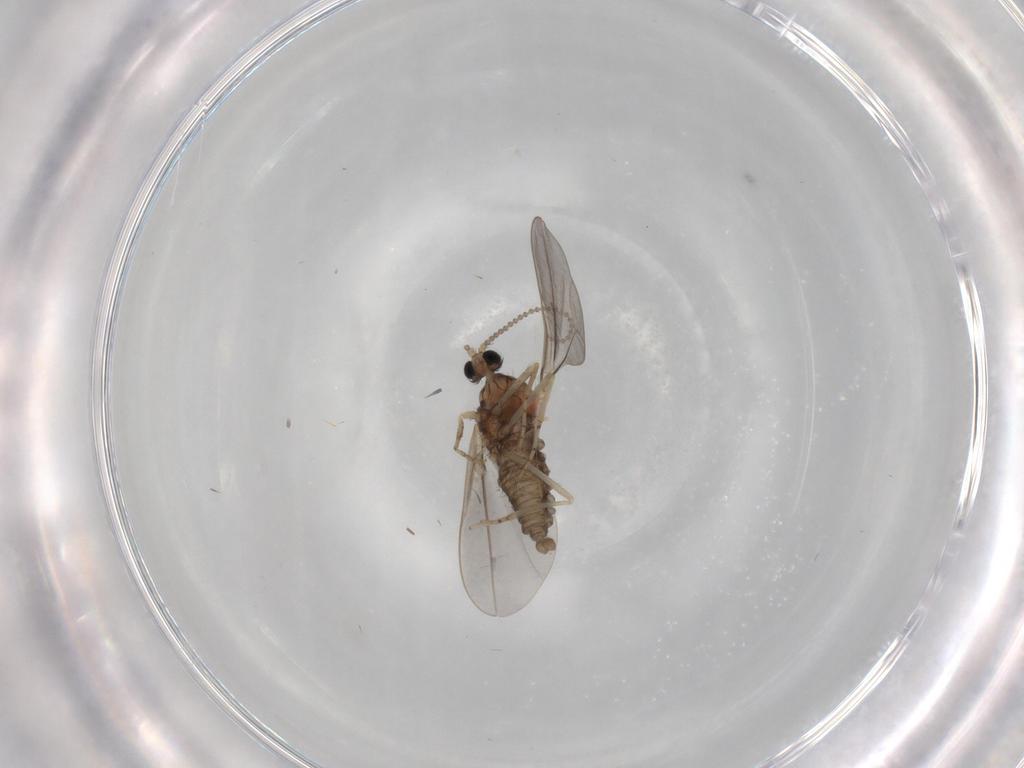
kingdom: Animalia
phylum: Arthropoda
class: Insecta
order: Diptera
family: Cecidomyiidae
